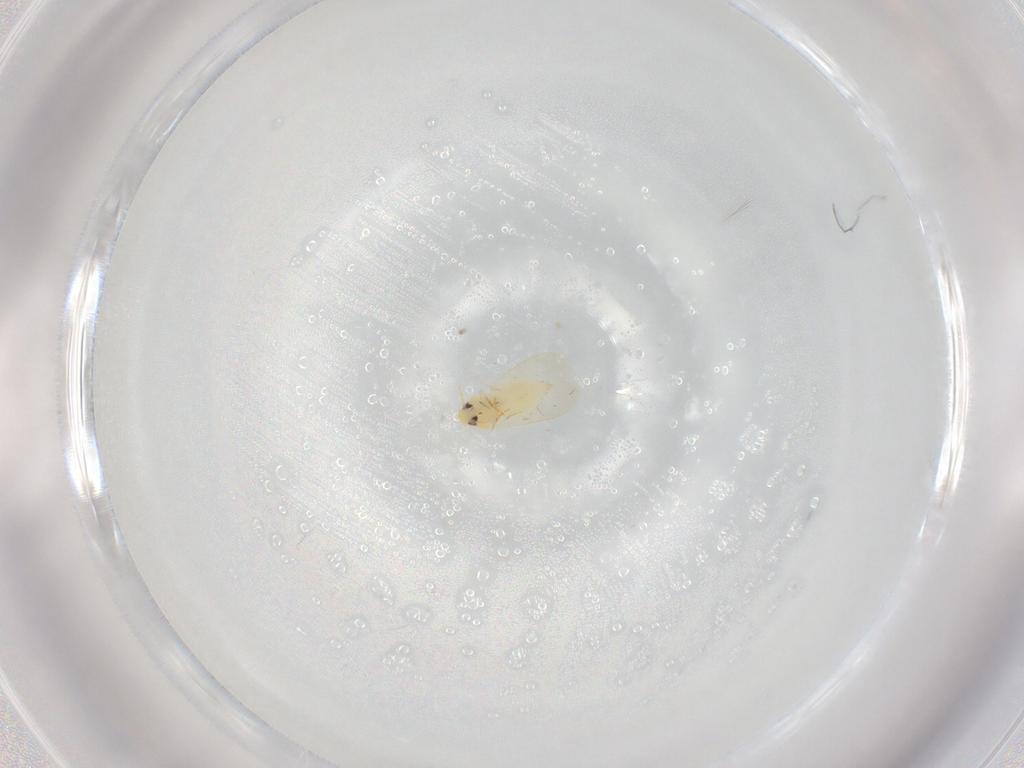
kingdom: Animalia
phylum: Arthropoda
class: Insecta
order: Hemiptera
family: Aleyrodidae
